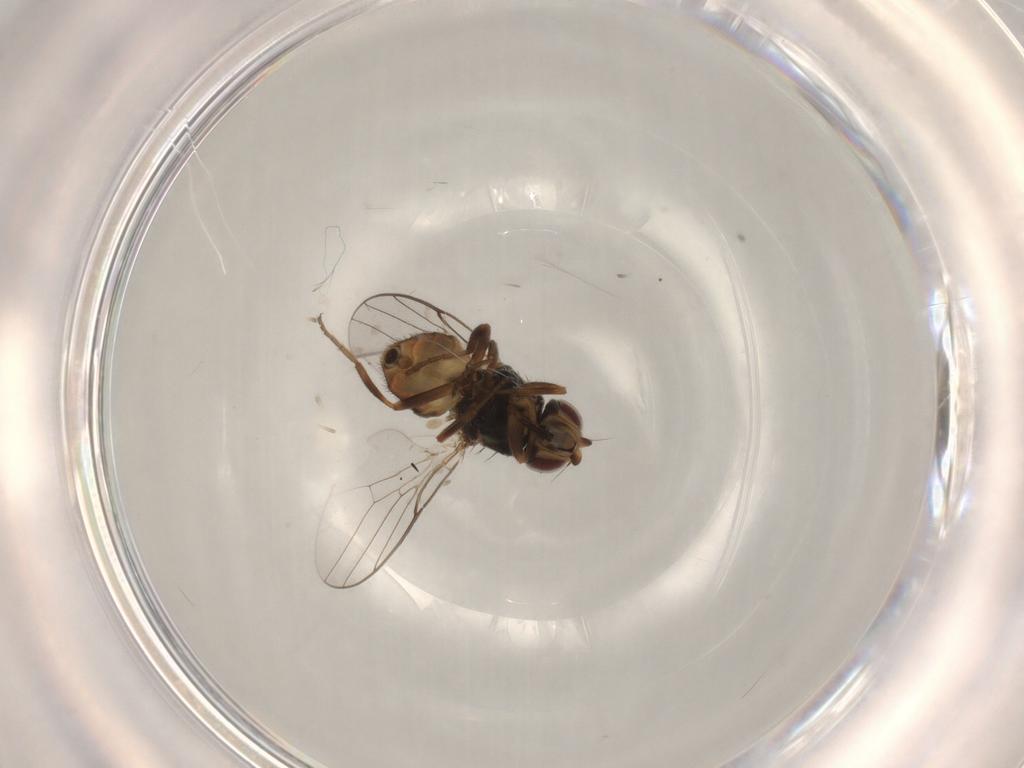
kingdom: Animalia
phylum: Arthropoda
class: Insecta
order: Diptera
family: Chloropidae
